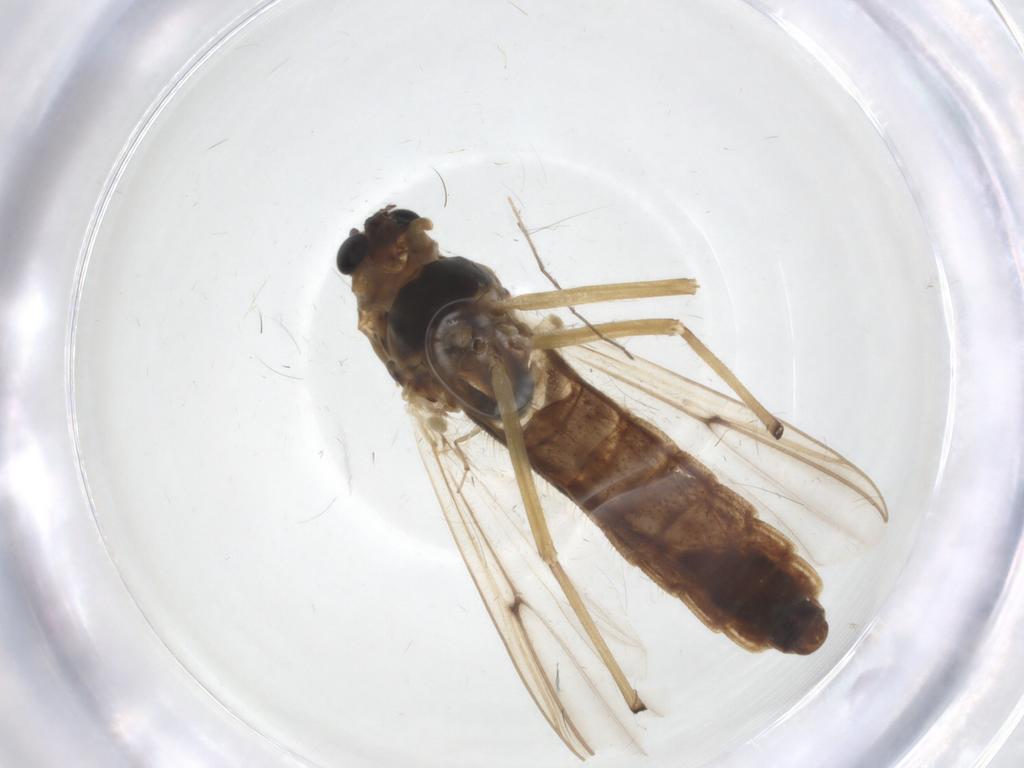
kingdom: Animalia
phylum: Arthropoda
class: Insecta
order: Diptera
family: Chironomidae
